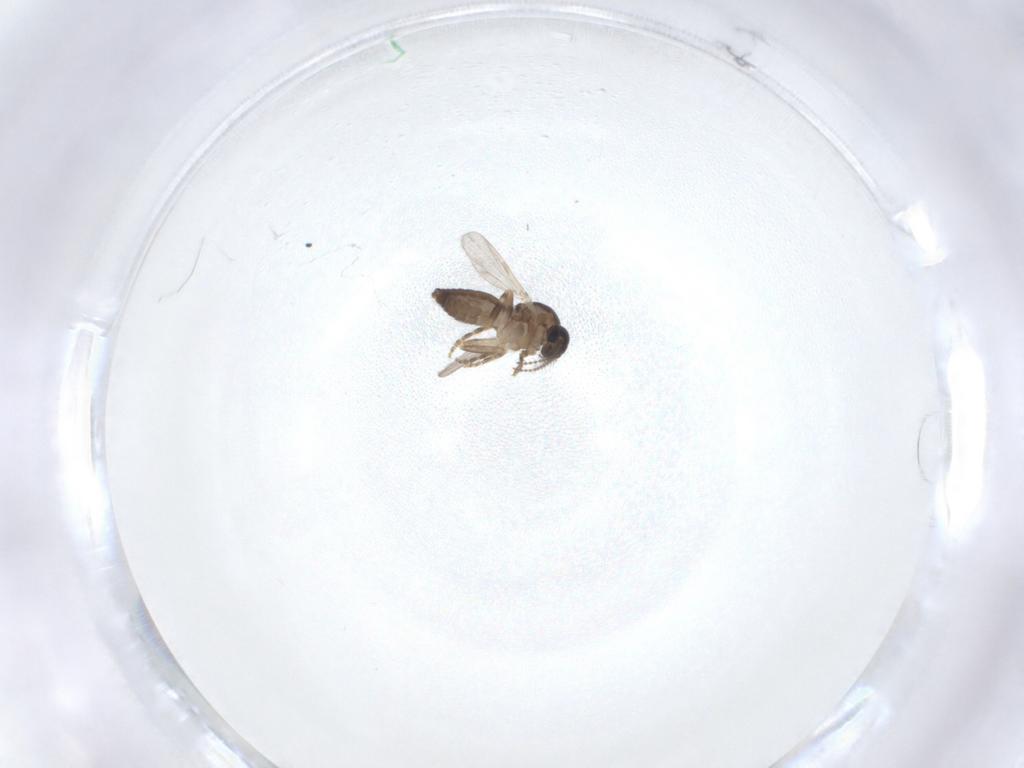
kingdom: Animalia
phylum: Arthropoda
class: Insecta
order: Diptera
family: Ceratopogonidae
